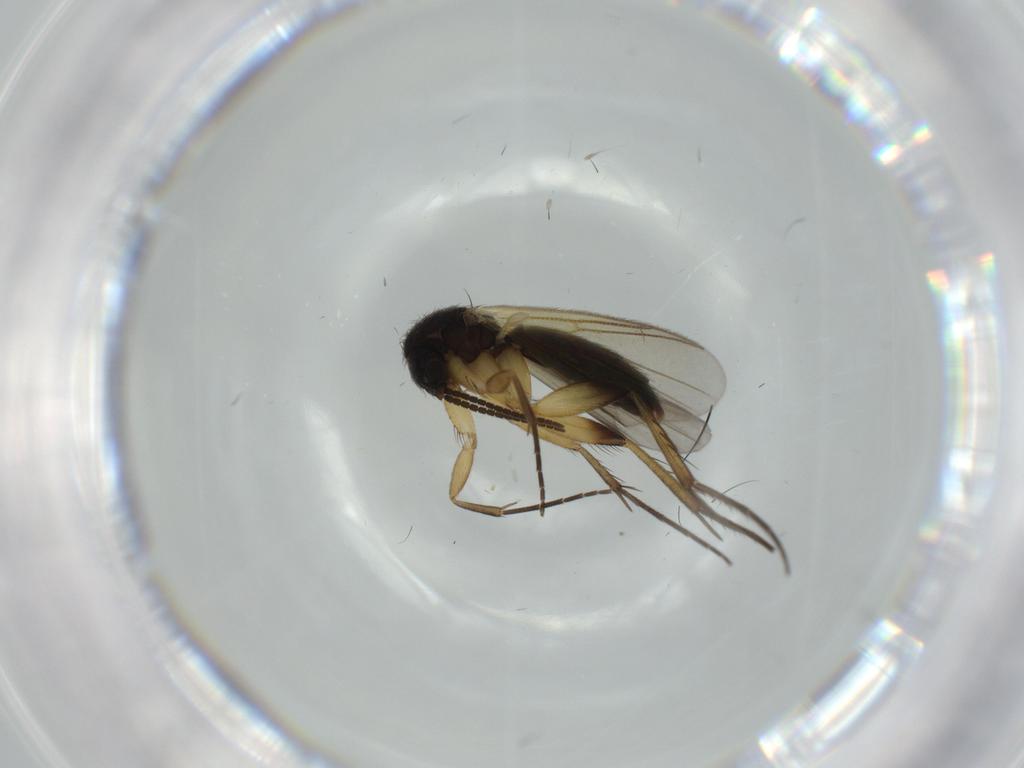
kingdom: Animalia
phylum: Arthropoda
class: Insecta
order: Diptera
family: Mycetophilidae
